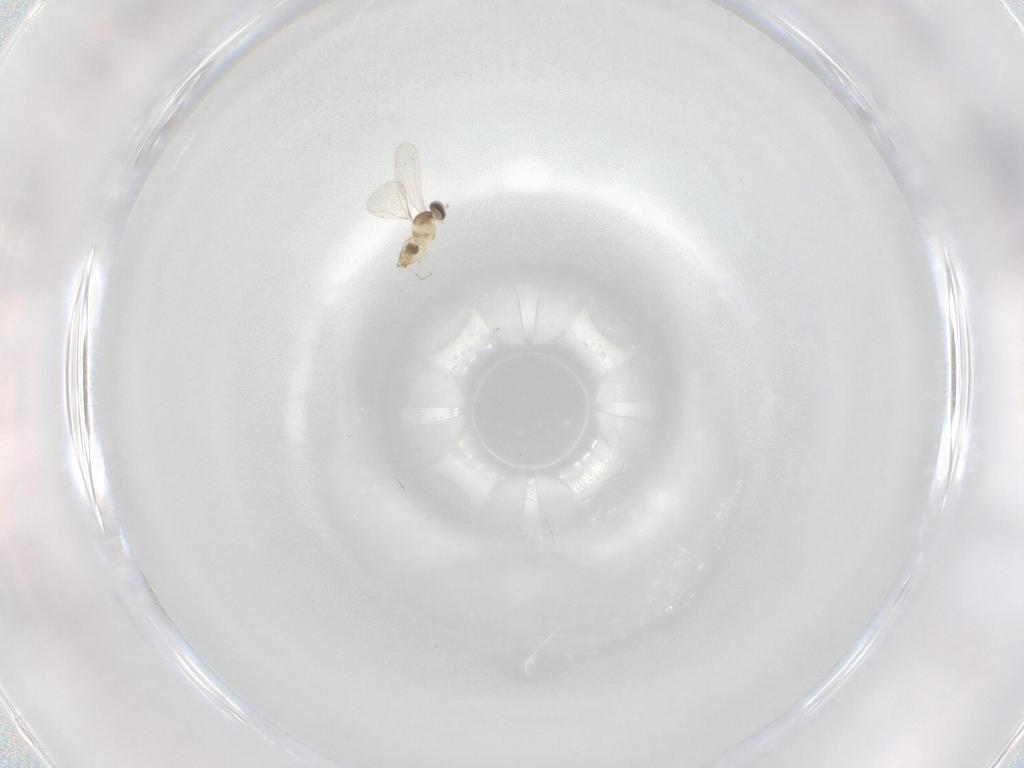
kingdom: Animalia
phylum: Arthropoda
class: Insecta
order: Diptera
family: Cecidomyiidae
